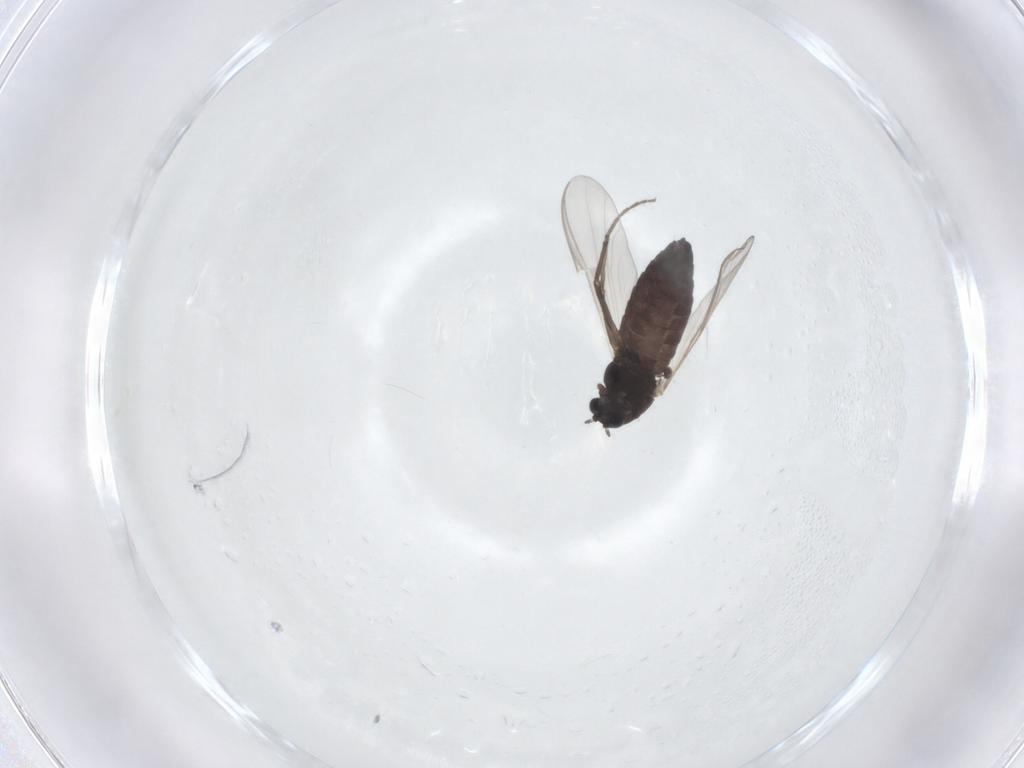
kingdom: Animalia
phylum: Arthropoda
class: Insecta
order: Diptera
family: Chironomidae
